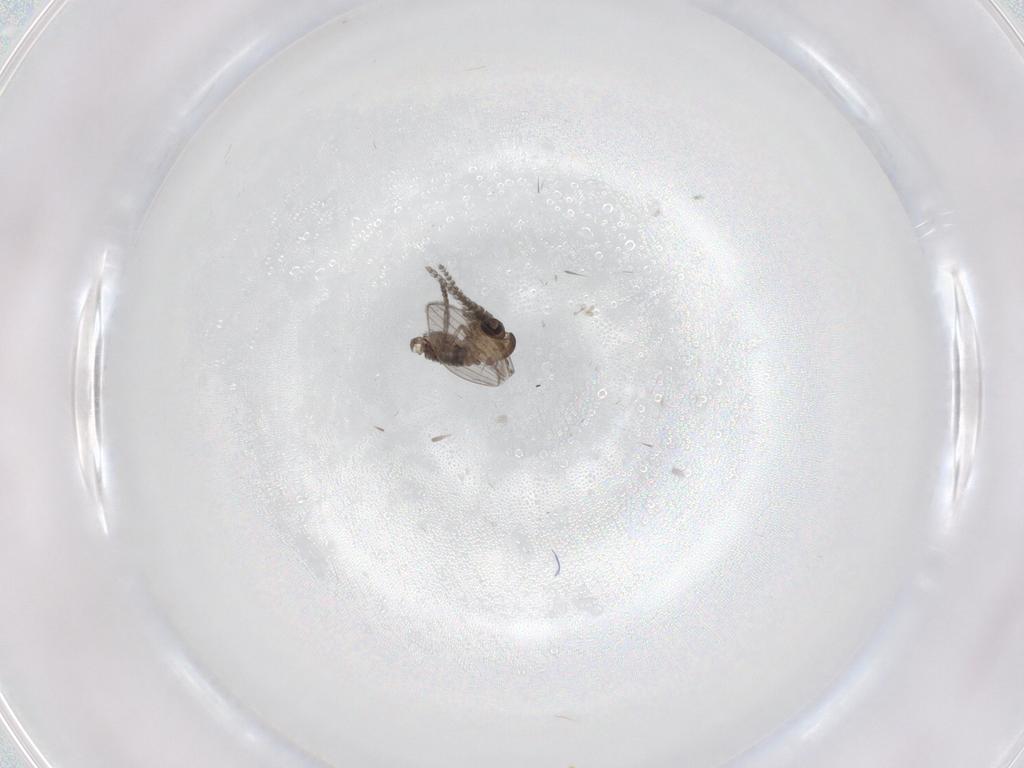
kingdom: Animalia
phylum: Arthropoda
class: Insecta
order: Diptera
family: Psychodidae
